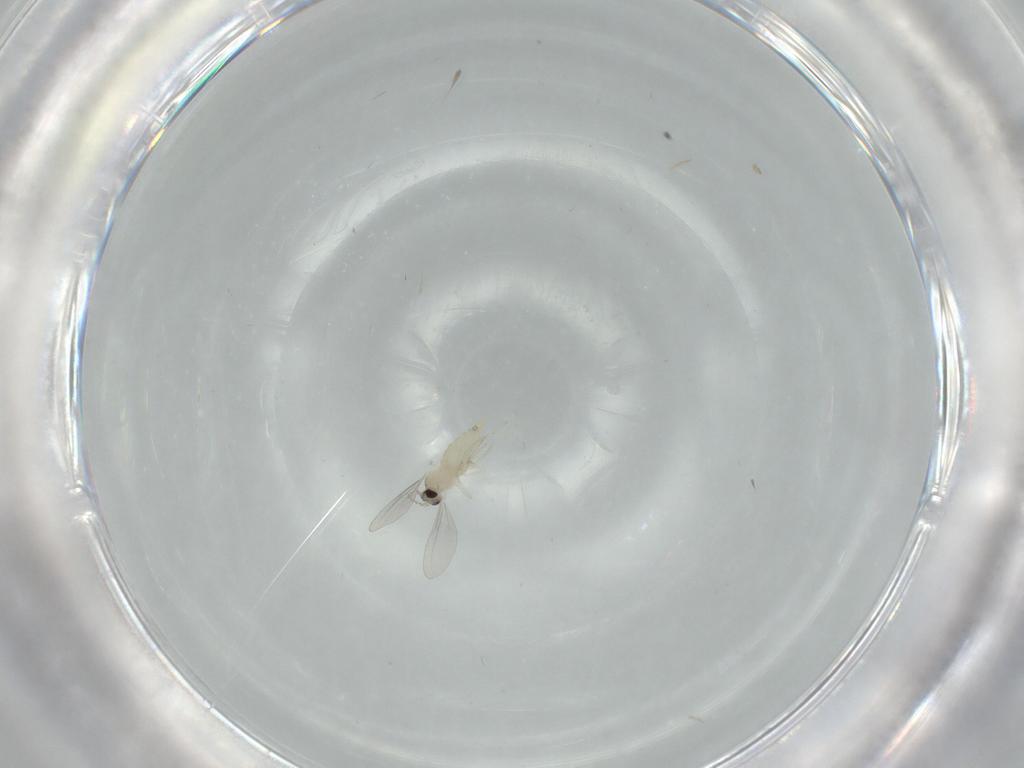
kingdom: Animalia
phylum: Arthropoda
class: Insecta
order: Diptera
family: Cecidomyiidae
